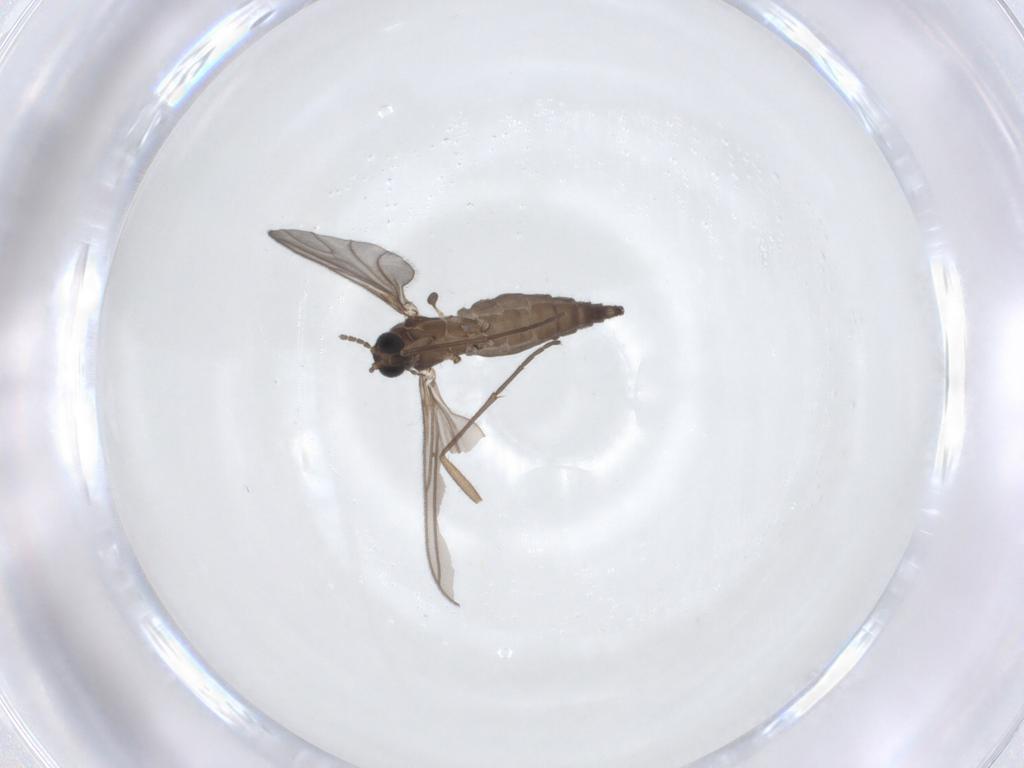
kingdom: Animalia
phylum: Arthropoda
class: Insecta
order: Diptera
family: Sciaridae
